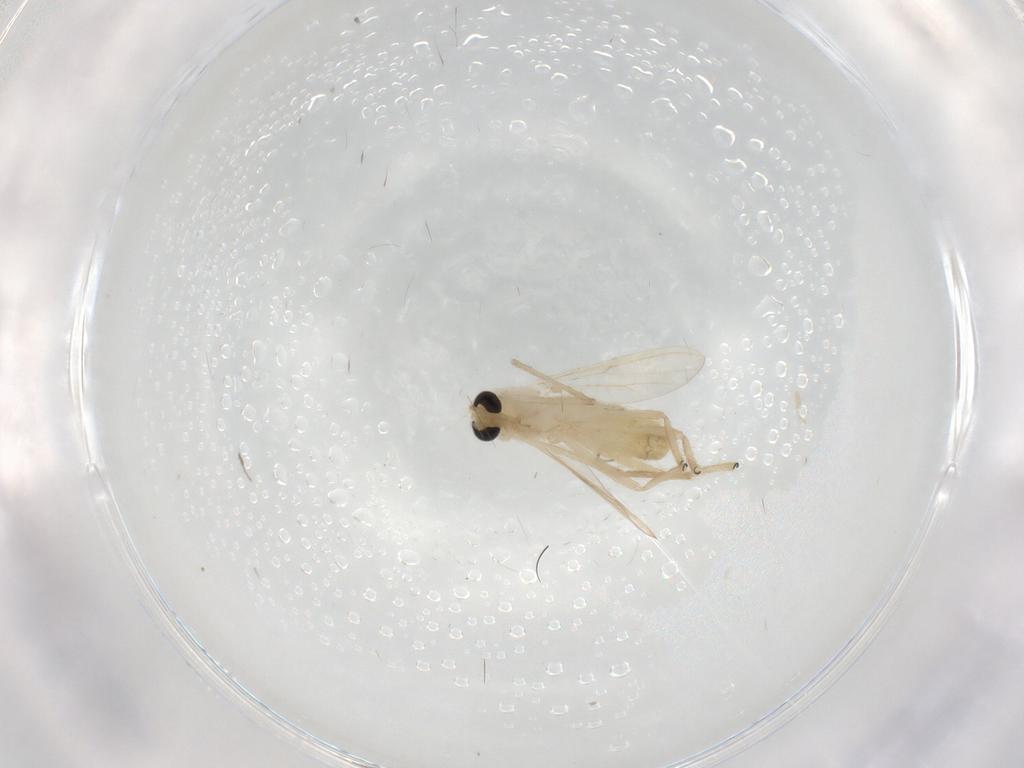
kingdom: Animalia
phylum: Arthropoda
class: Insecta
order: Diptera
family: Chironomidae
